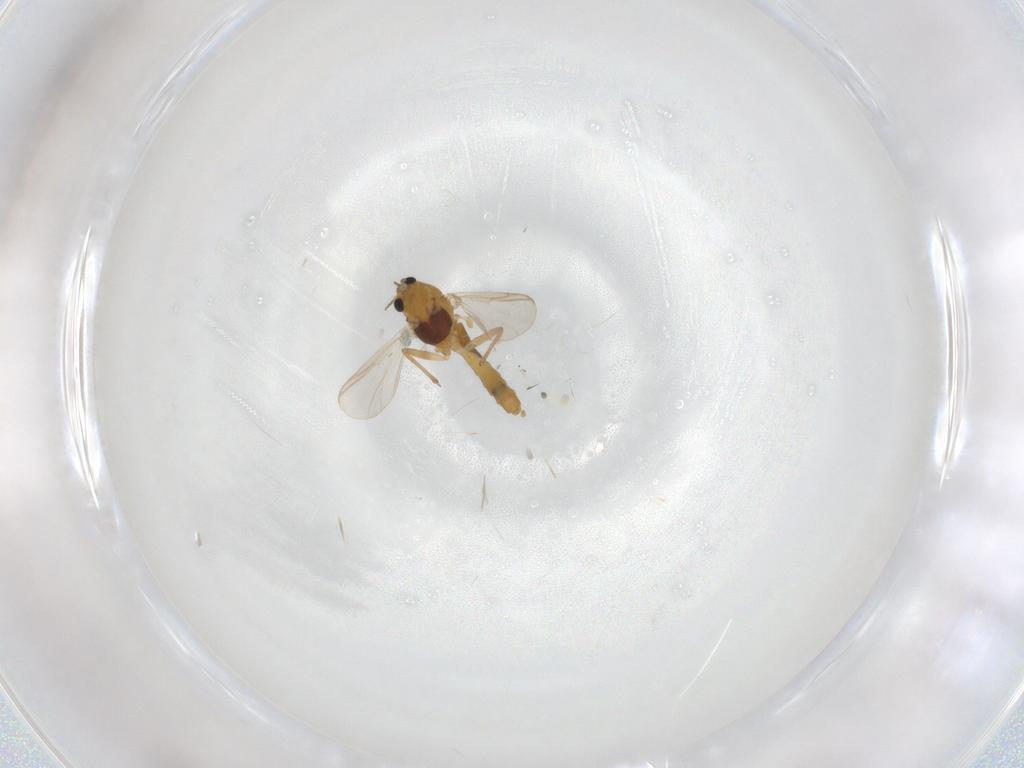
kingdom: Animalia
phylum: Arthropoda
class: Insecta
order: Diptera
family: Chironomidae
